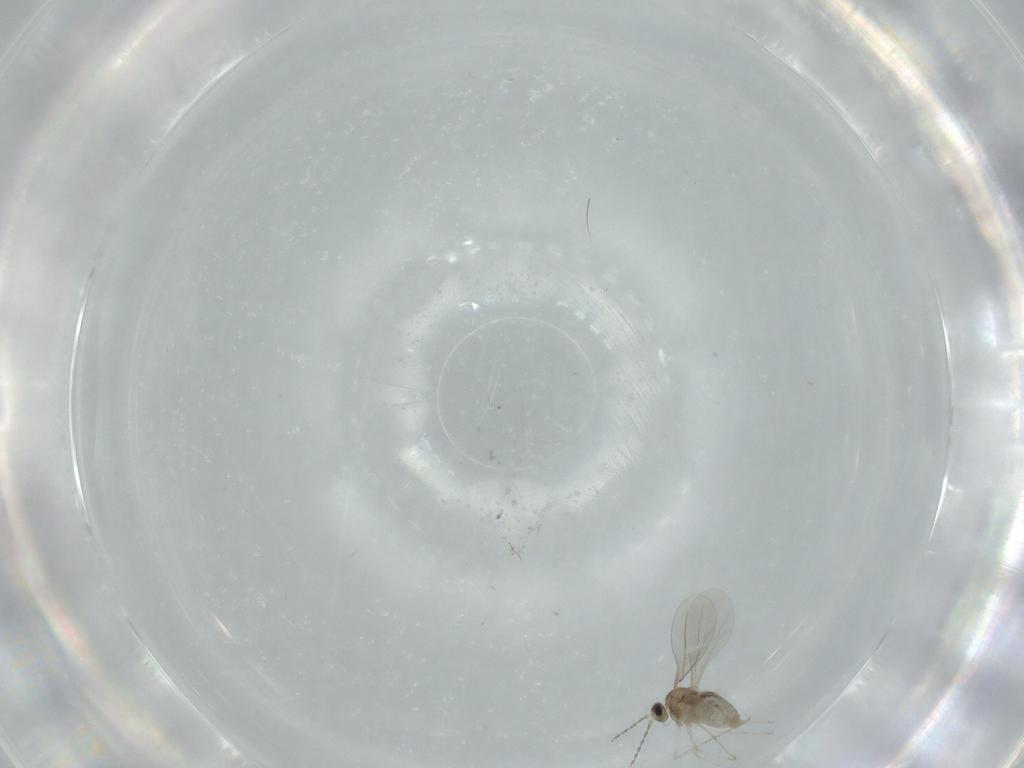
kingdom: Animalia
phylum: Arthropoda
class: Insecta
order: Diptera
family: Cecidomyiidae
